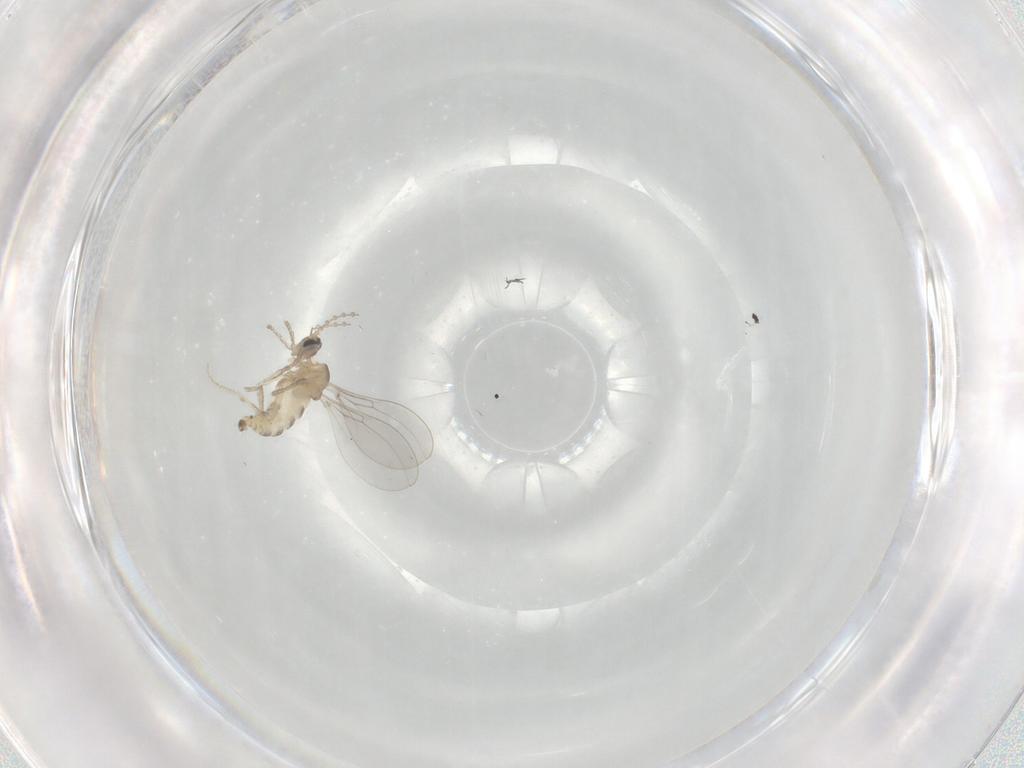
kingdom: Animalia
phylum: Arthropoda
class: Insecta
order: Diptera
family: Cecidomyiidae
